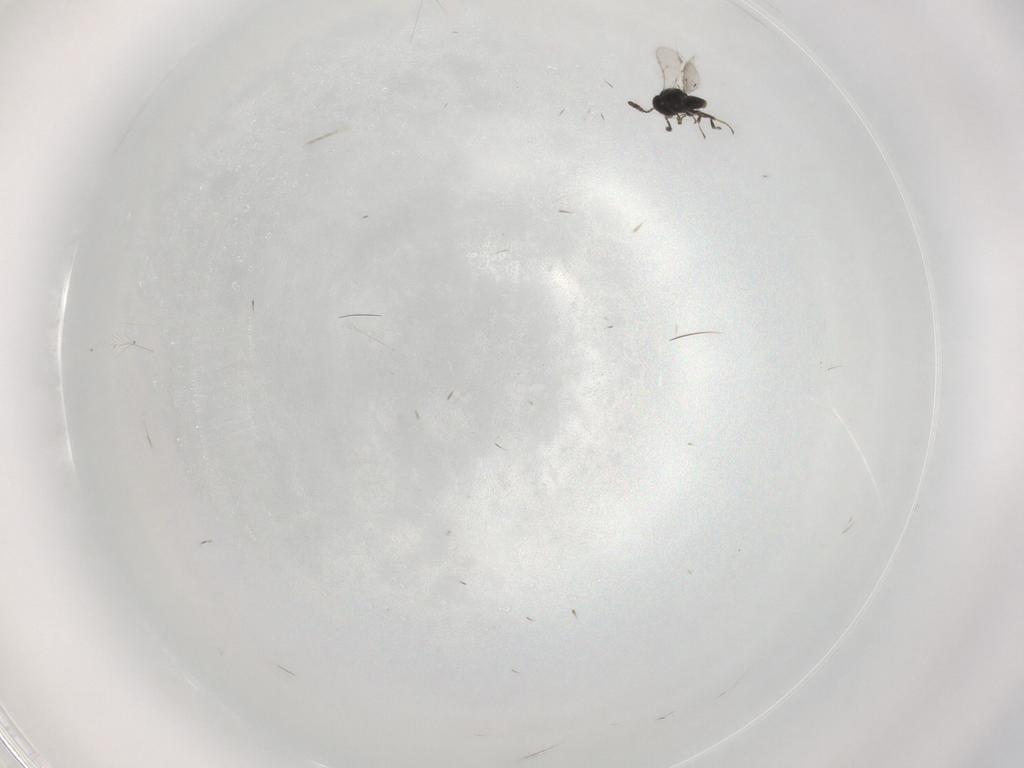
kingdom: Animalia
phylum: Arthropoda
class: Insecta
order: Hymenoptera
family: Scelionidae
